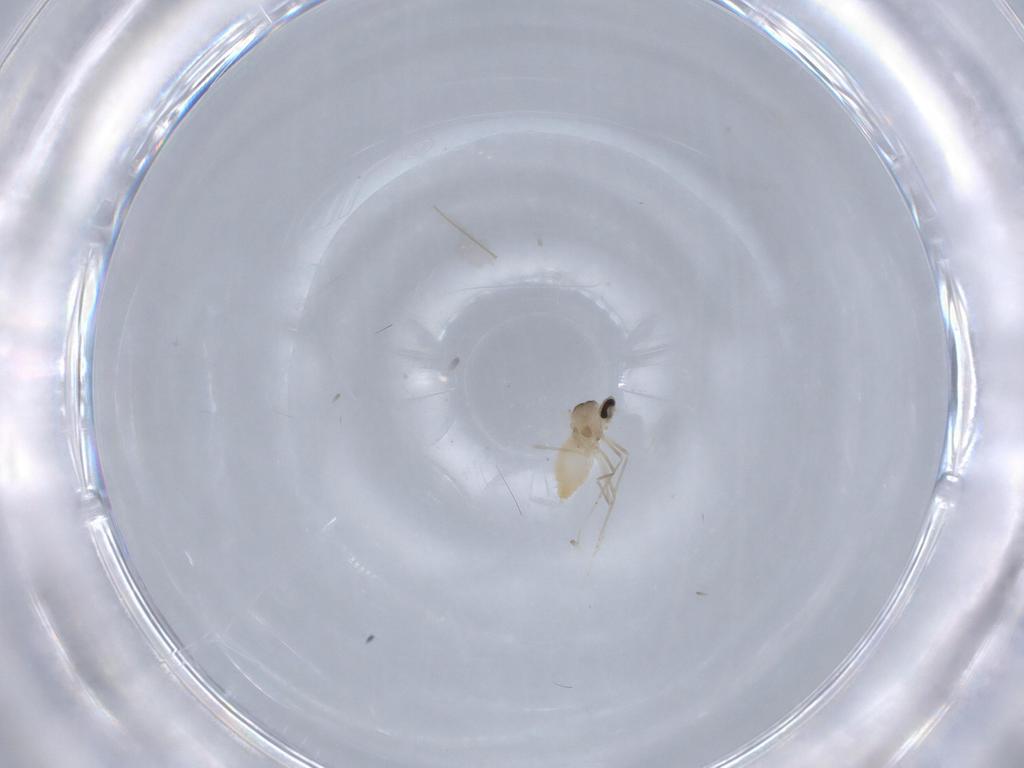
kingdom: Animalia
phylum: Arthropoda
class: Insecta
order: Diptera
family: Cecidomyiidae
